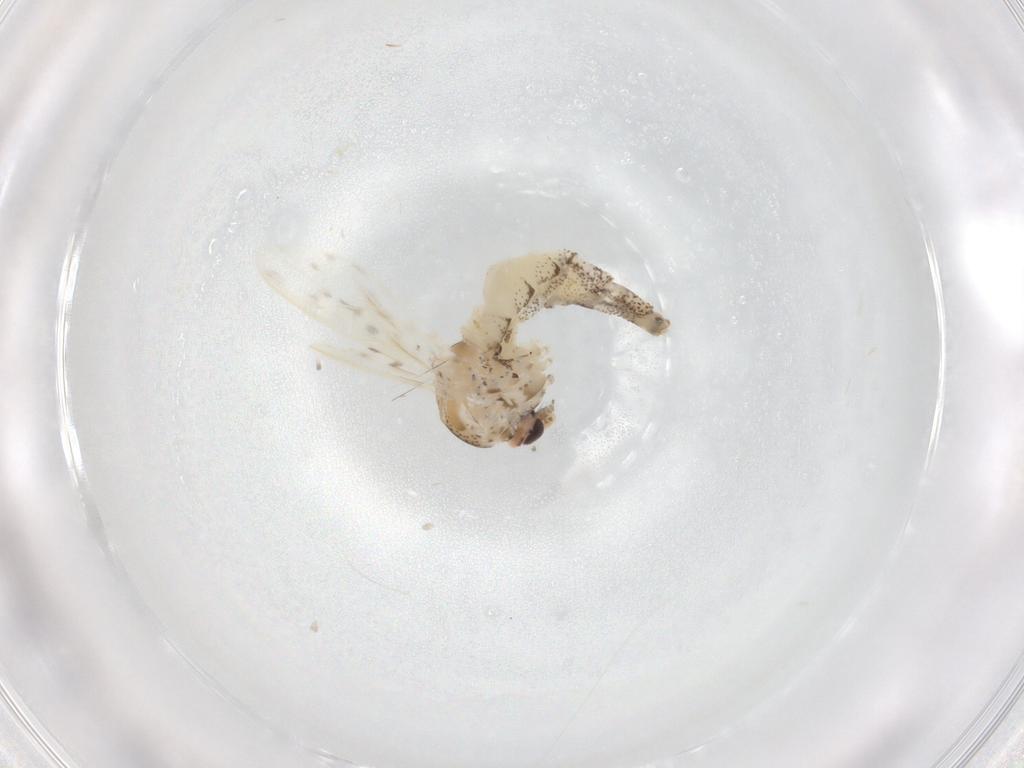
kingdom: Animalia
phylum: Arthropoda
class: Insecta
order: Diptera
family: Chaoboridae
